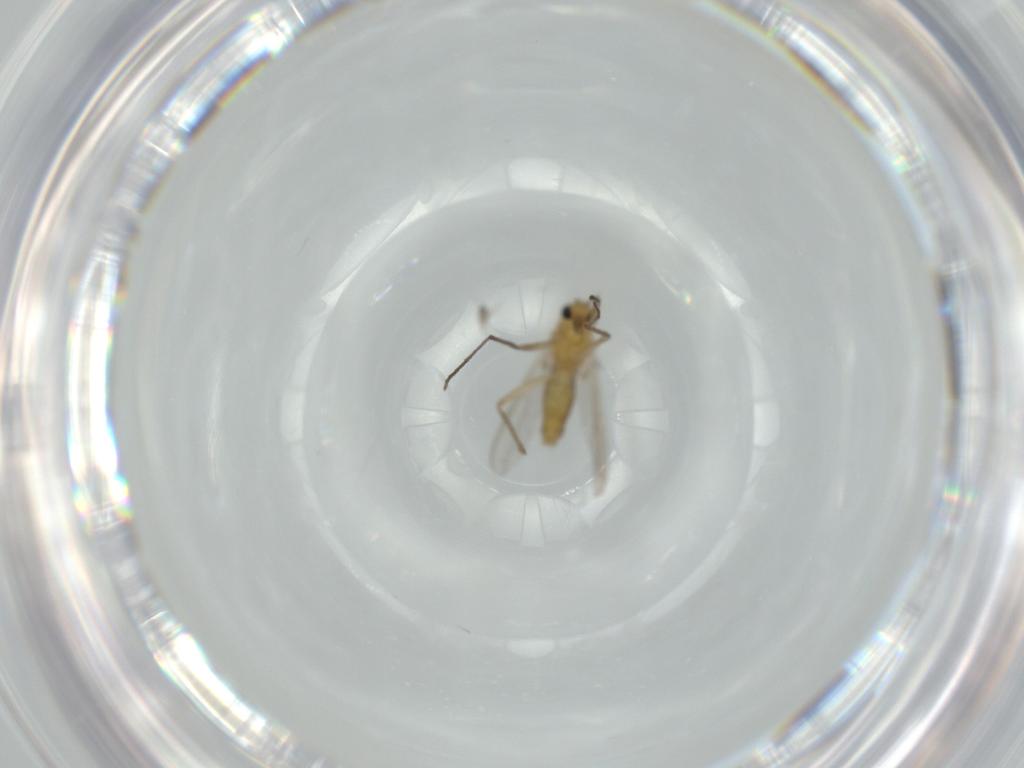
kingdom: Animalia
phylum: Arthropoda
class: Insecta
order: Diptera
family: Chironomidae
